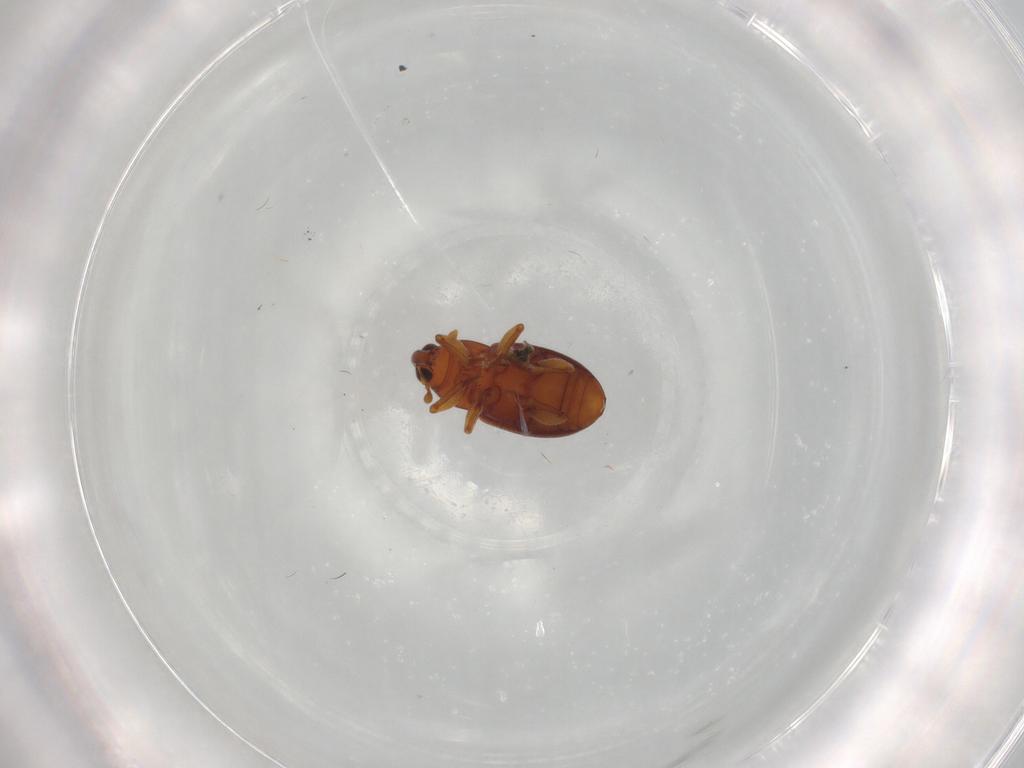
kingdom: Animalia
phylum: Arthropoda
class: Insecta
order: Coleoptera
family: Curculionidae
